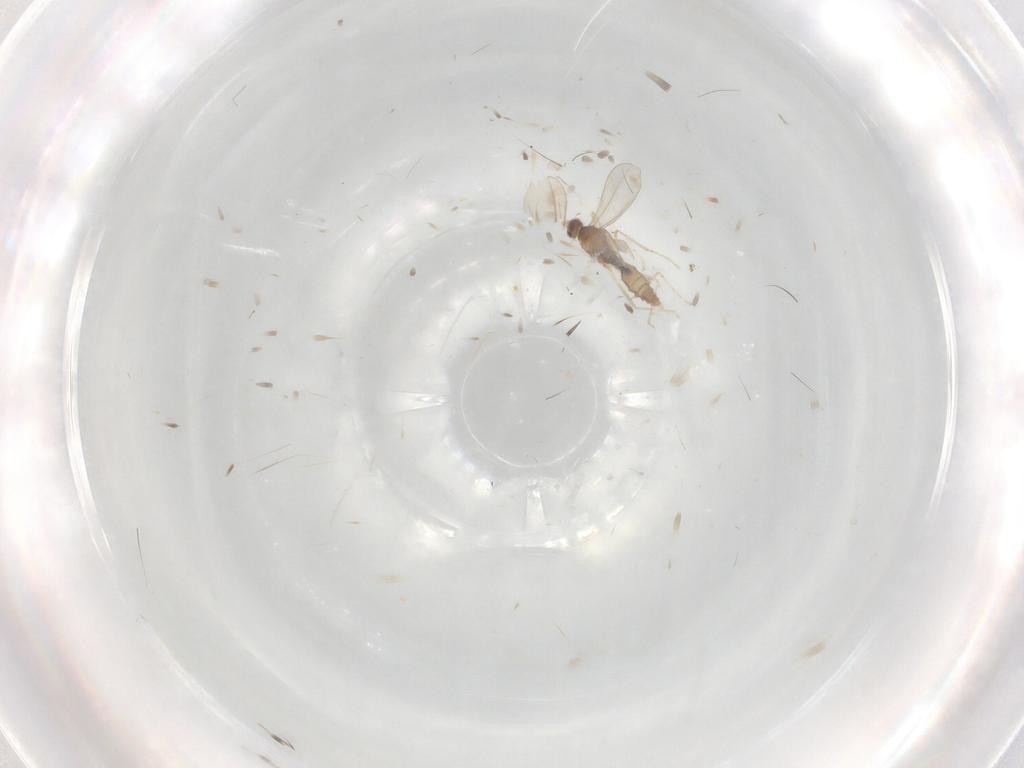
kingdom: Animalia
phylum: Arthropoda
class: Insecta
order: Diptera
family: Cecidomyiidae
